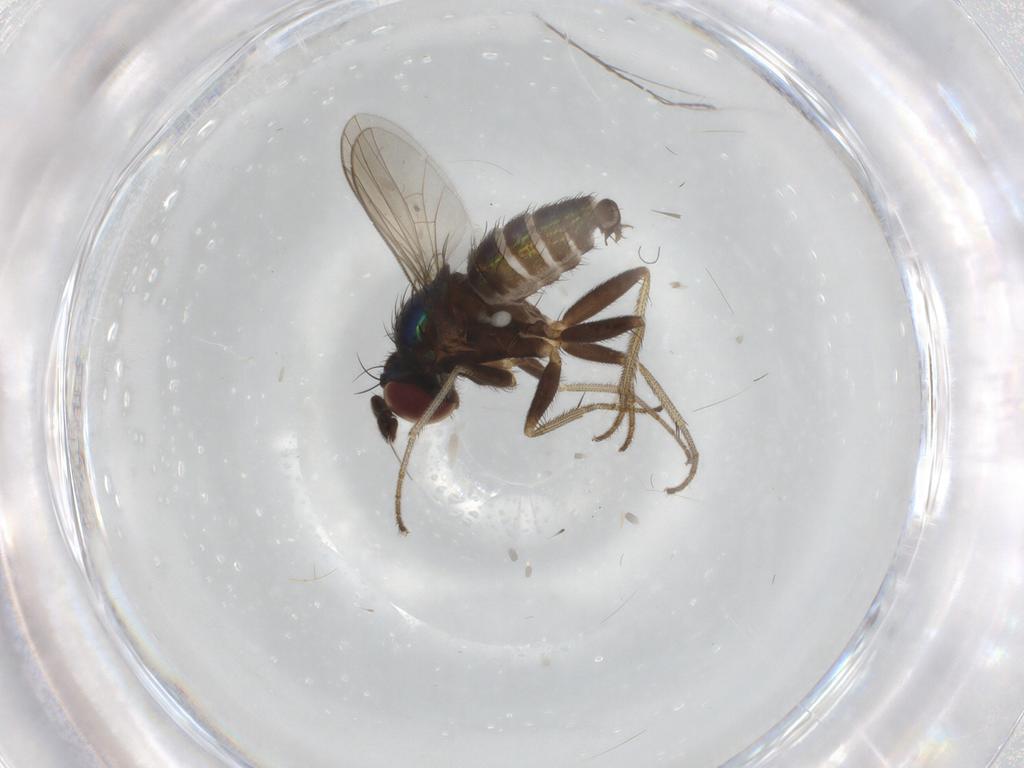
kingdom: Animalia
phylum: Arthropoda
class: Insecta
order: Diptera
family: Dolichopodidae
